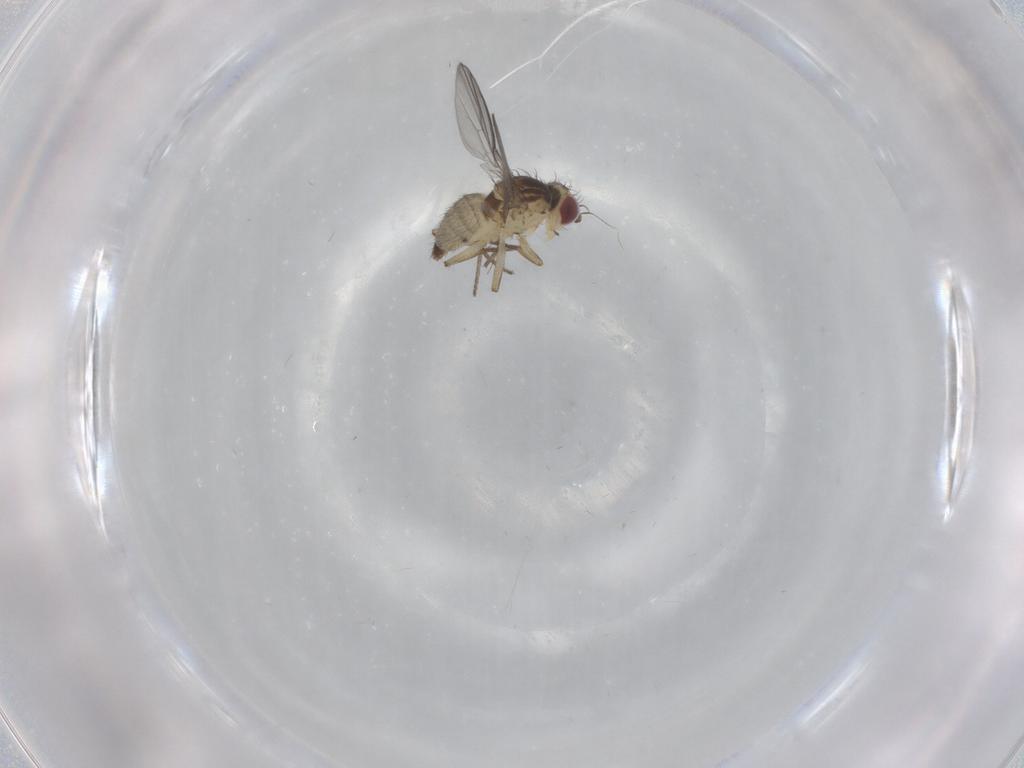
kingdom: Animalia
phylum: Arthropoda
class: Insecta
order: Diptera
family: Agromyzidae
